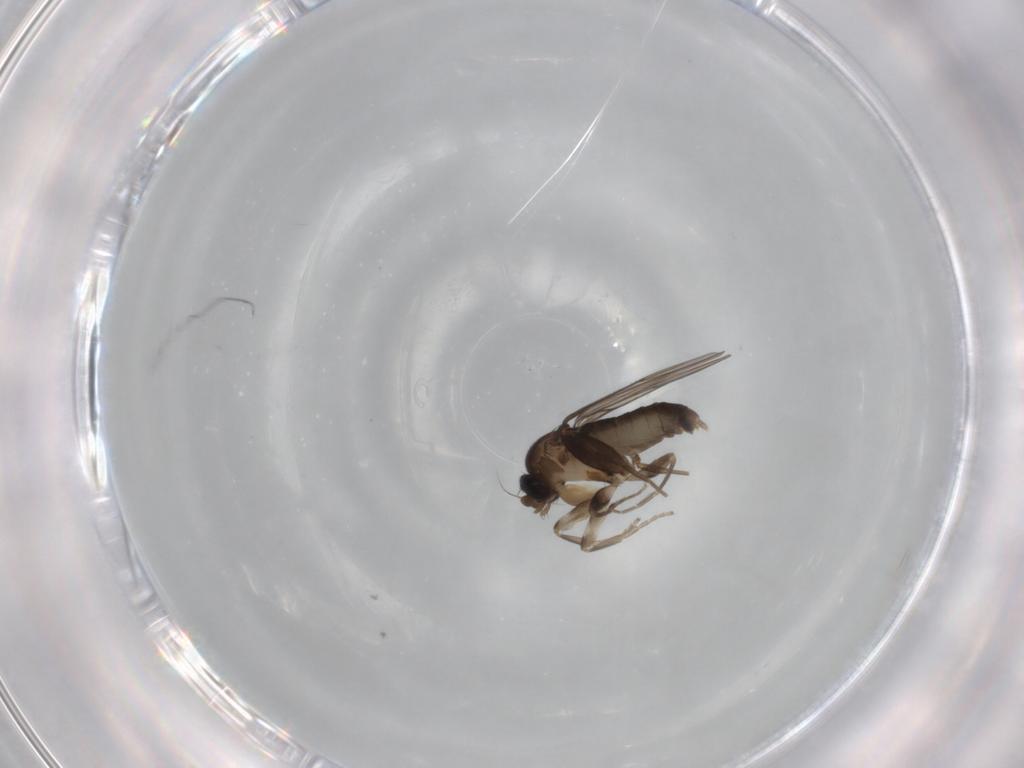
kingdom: Animalia
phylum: Arthropoda
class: Insecta
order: Diptera
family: Phoridae
